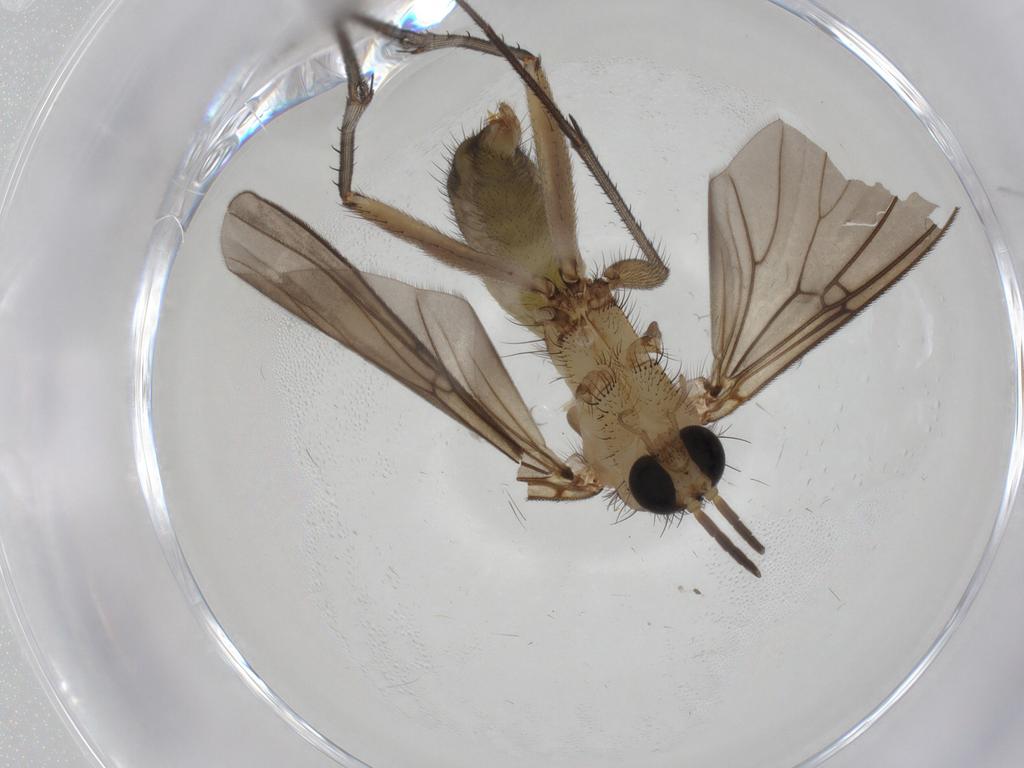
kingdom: Animalia
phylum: Arthropoda
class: Insecta
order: Diptera
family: Mycetophilidae
